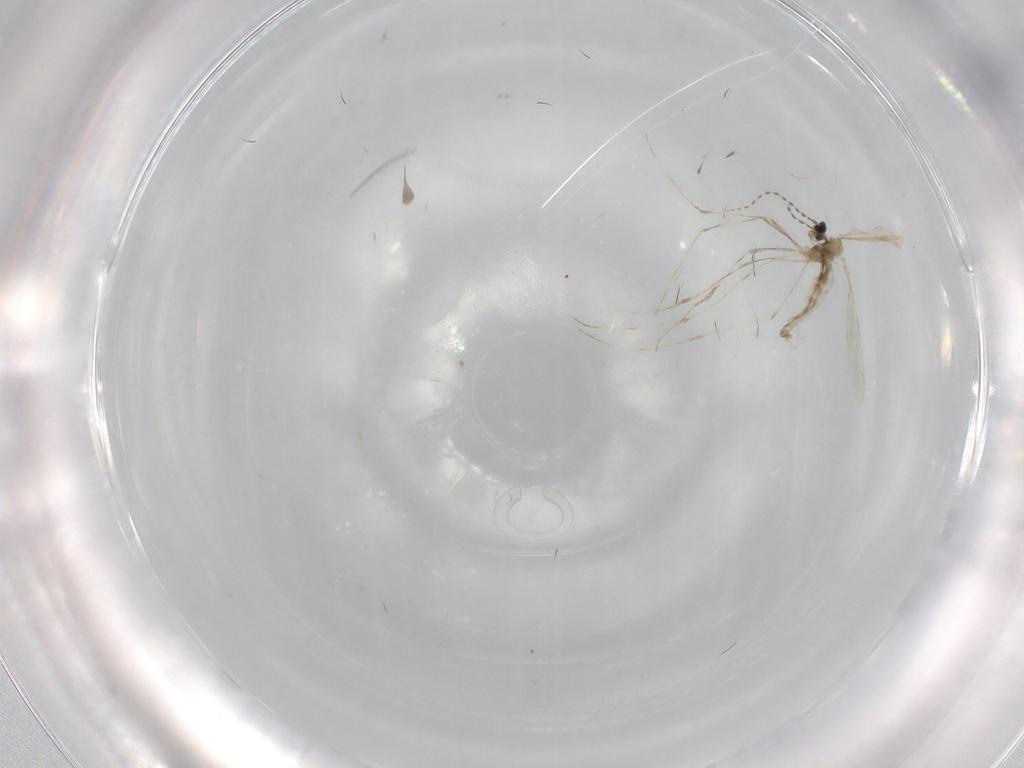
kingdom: Animalia
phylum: Arthropoda
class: Insecta
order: Diptera
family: Cecidomyiidae
